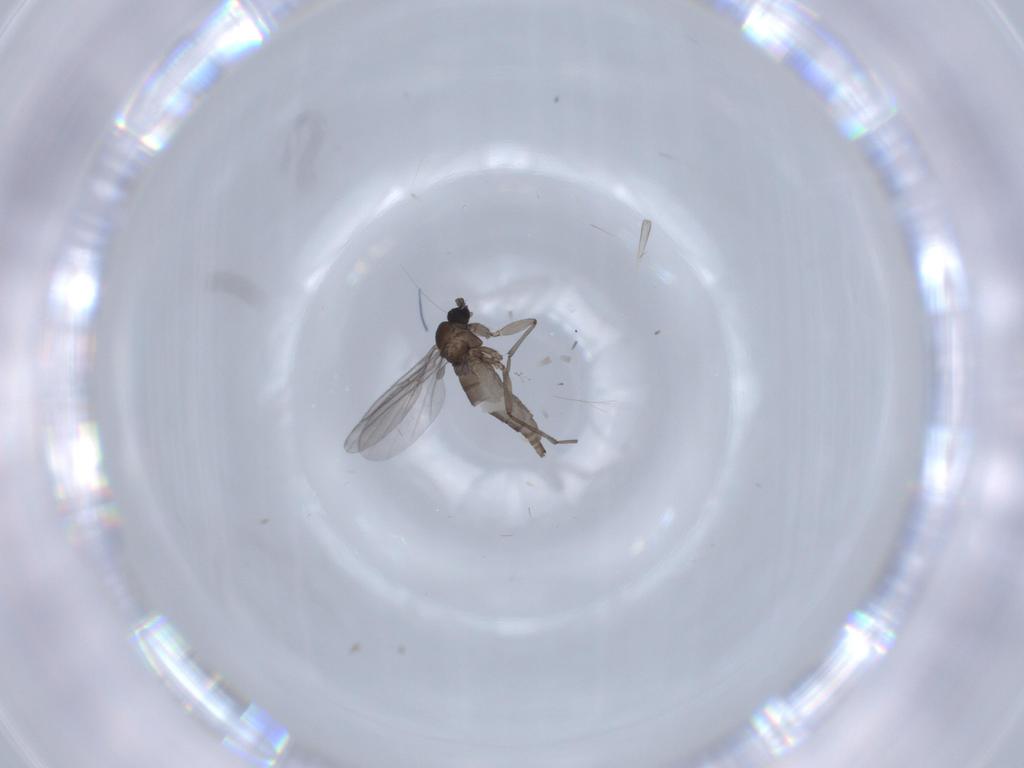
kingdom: Animalia
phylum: Arthropoda
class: Insecta
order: Diptera
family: Sciaridae
